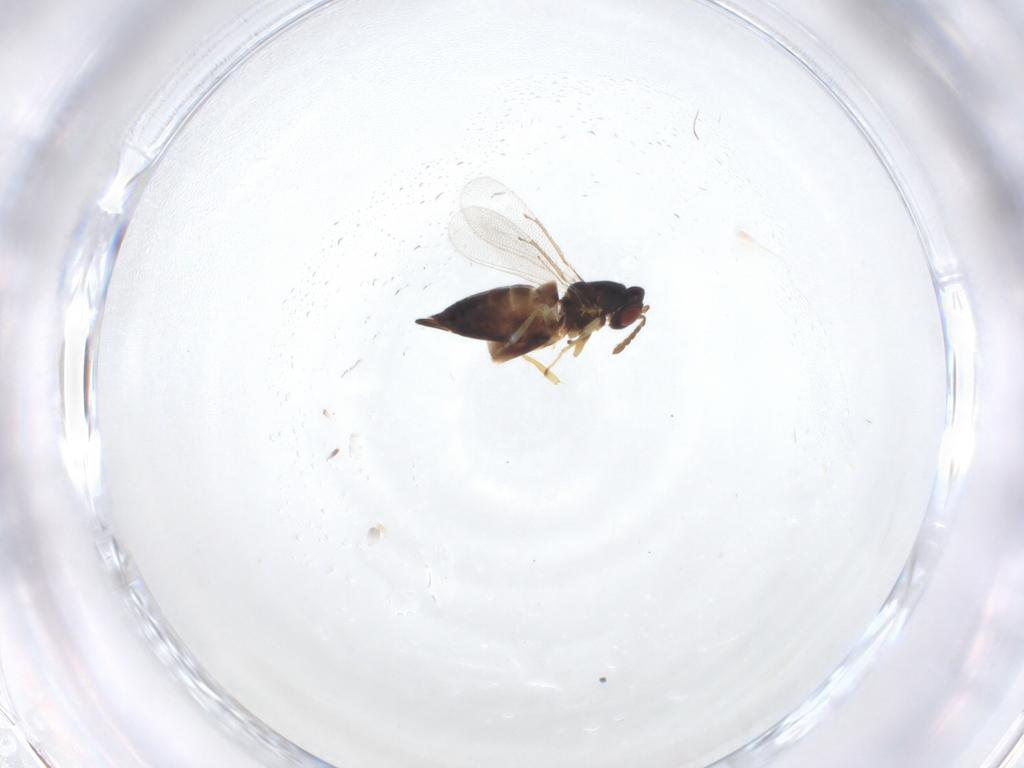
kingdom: Animalia
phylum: Arthropoda
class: Insecta
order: Hymenoptera
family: Eulophidae
